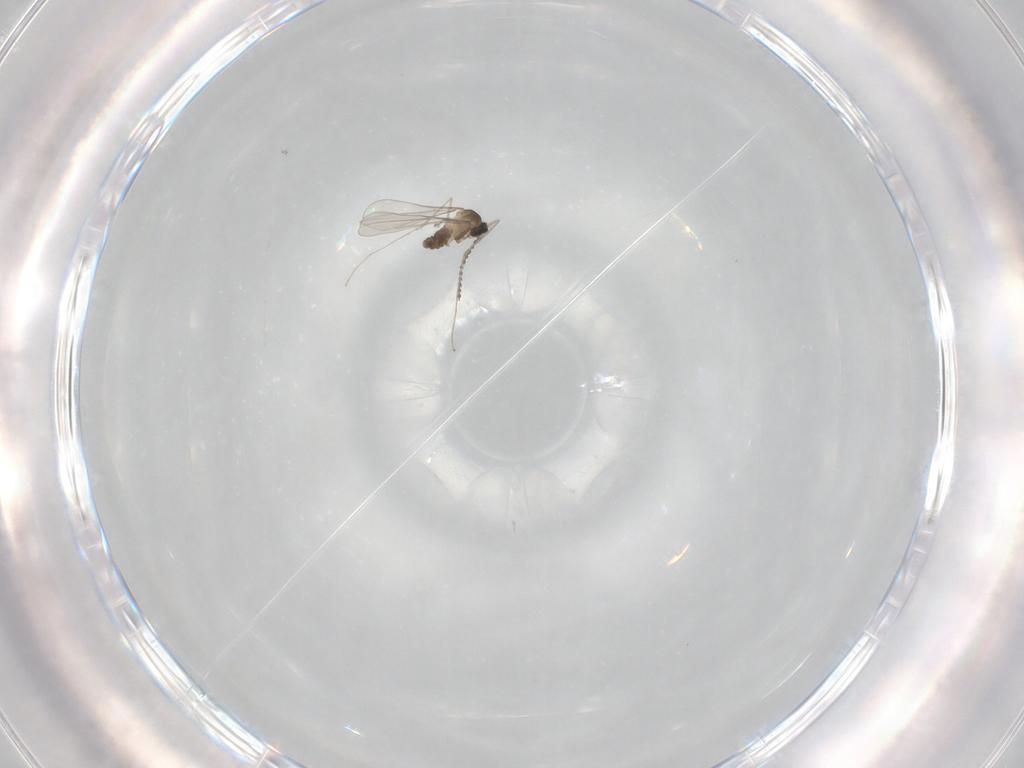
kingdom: Animalia
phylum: Arthropoda
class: Insecta
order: Diptera
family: Cecidomyiidae
